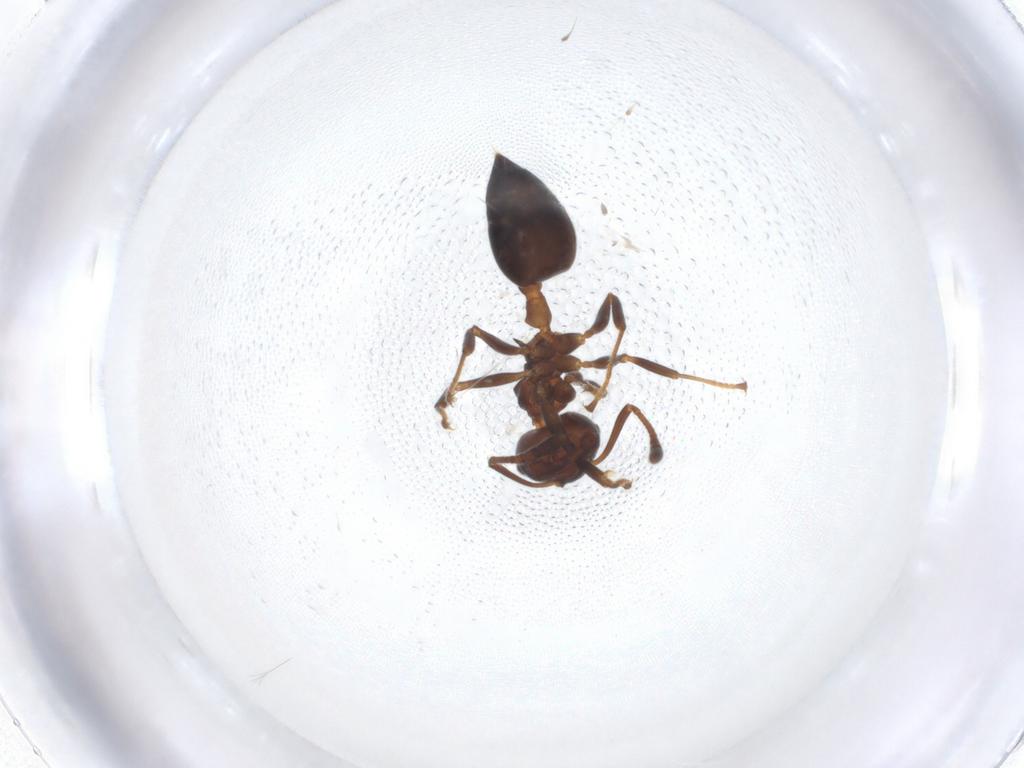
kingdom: Animalia
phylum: Arthropoda
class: Insecta
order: Hymenoptera
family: Formicidae
